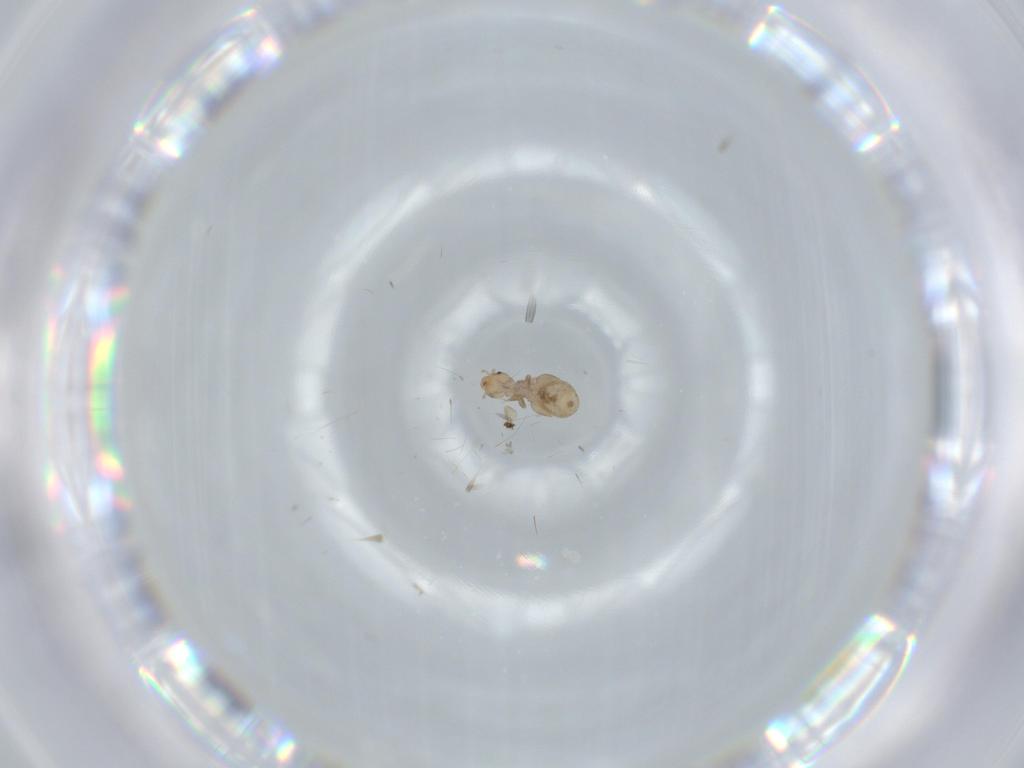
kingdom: Animalia
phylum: Arthropoda
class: Insecta
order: Psocodea
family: Liposcelididae
